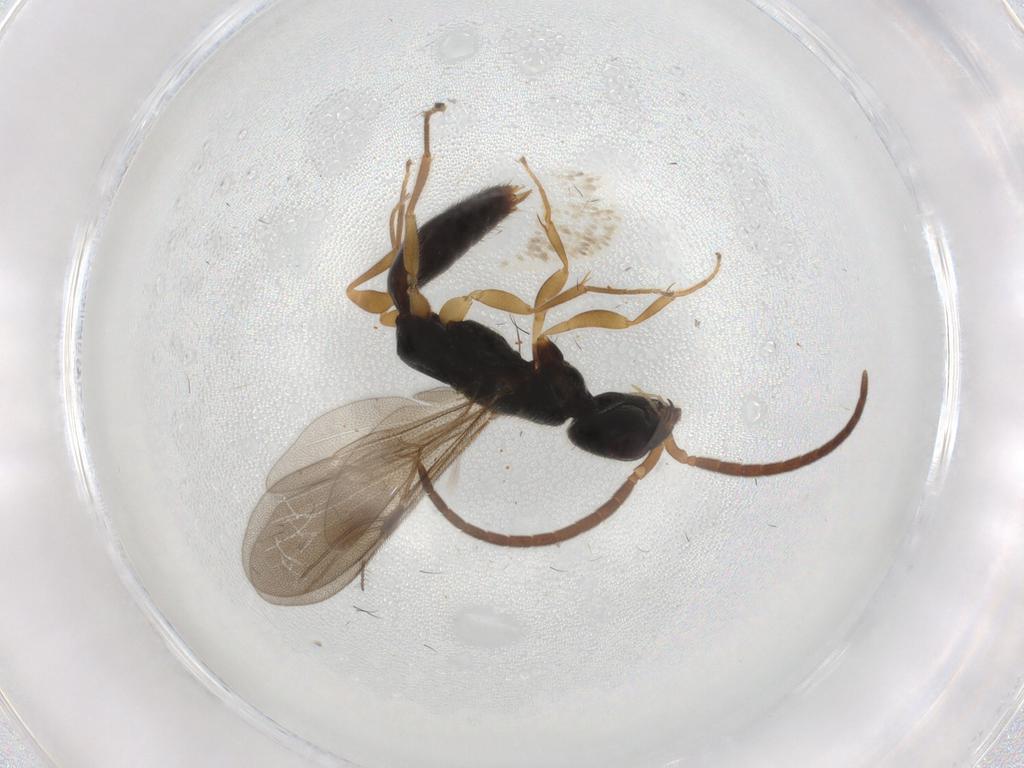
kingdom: Animalia
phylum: Arthropoda
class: Insecta
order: Hymenoptera
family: Bethylidae
